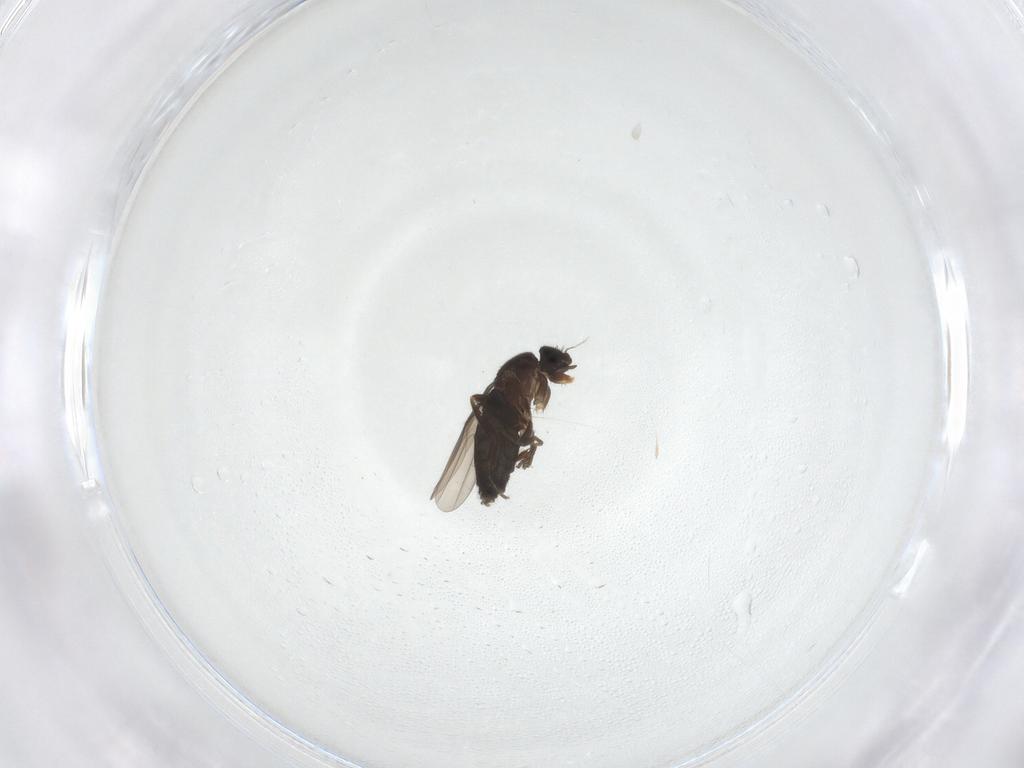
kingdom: Animalia
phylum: Arthropoda
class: Insecta
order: Diptera
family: Phoridae
